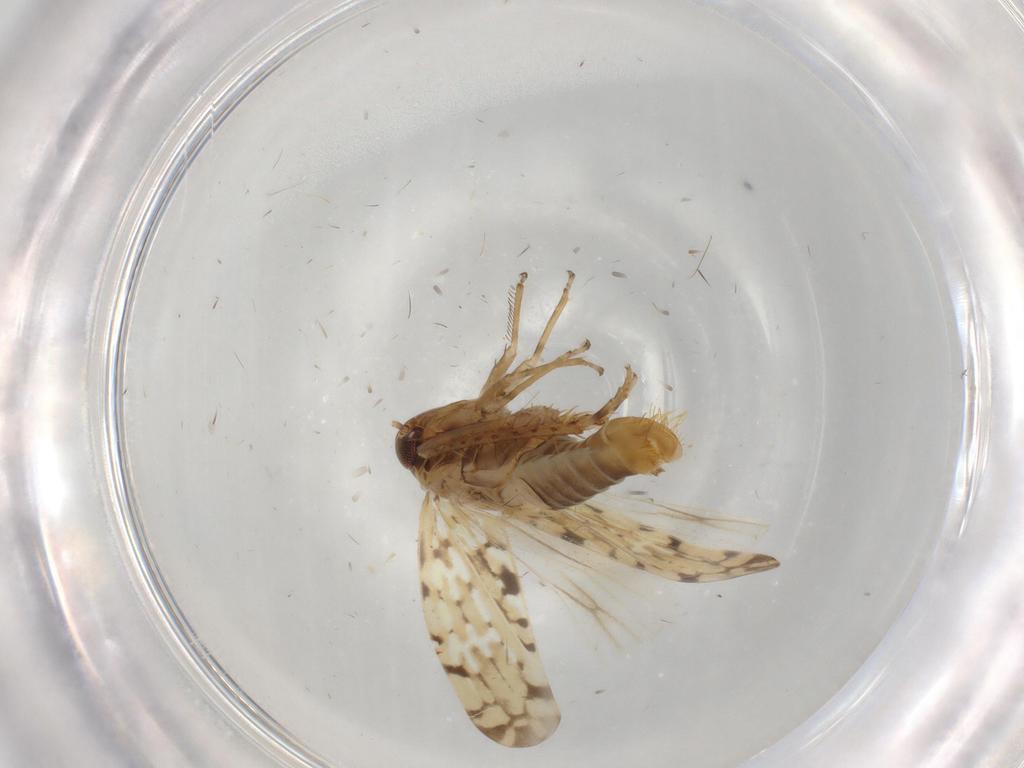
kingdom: Animalia
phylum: Arthropoda
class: Insecta
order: Hemiptera
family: Cicadellidae
